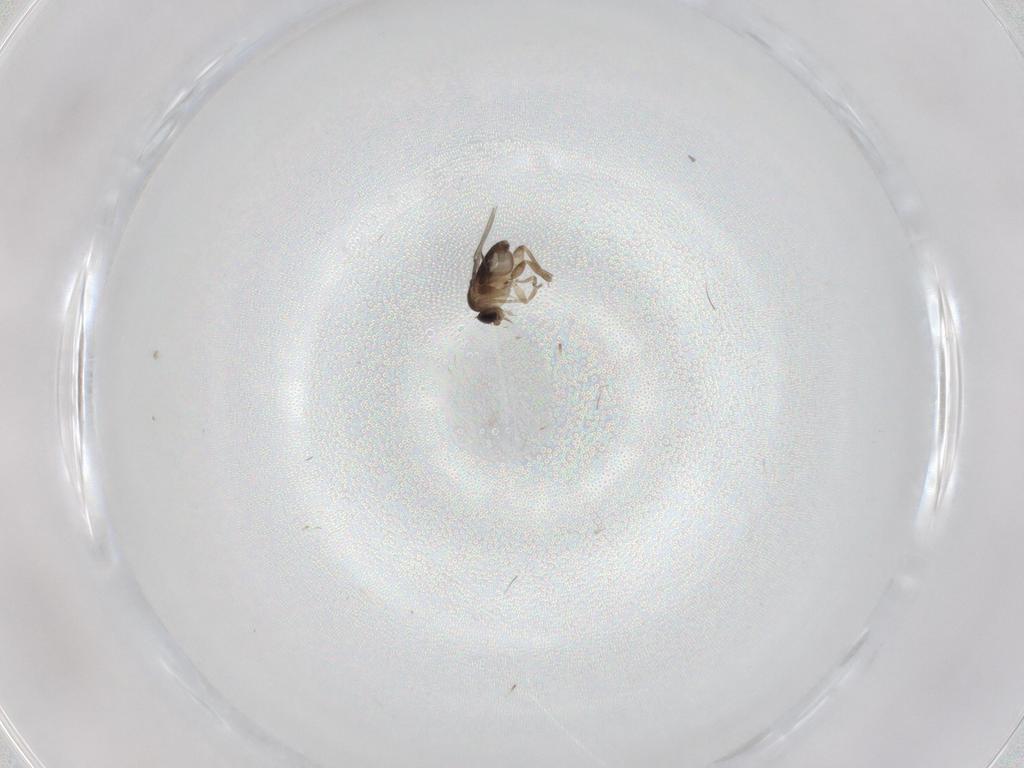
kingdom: Animalia
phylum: Arthropoda
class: Insecta
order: Diptera
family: Phoridae
